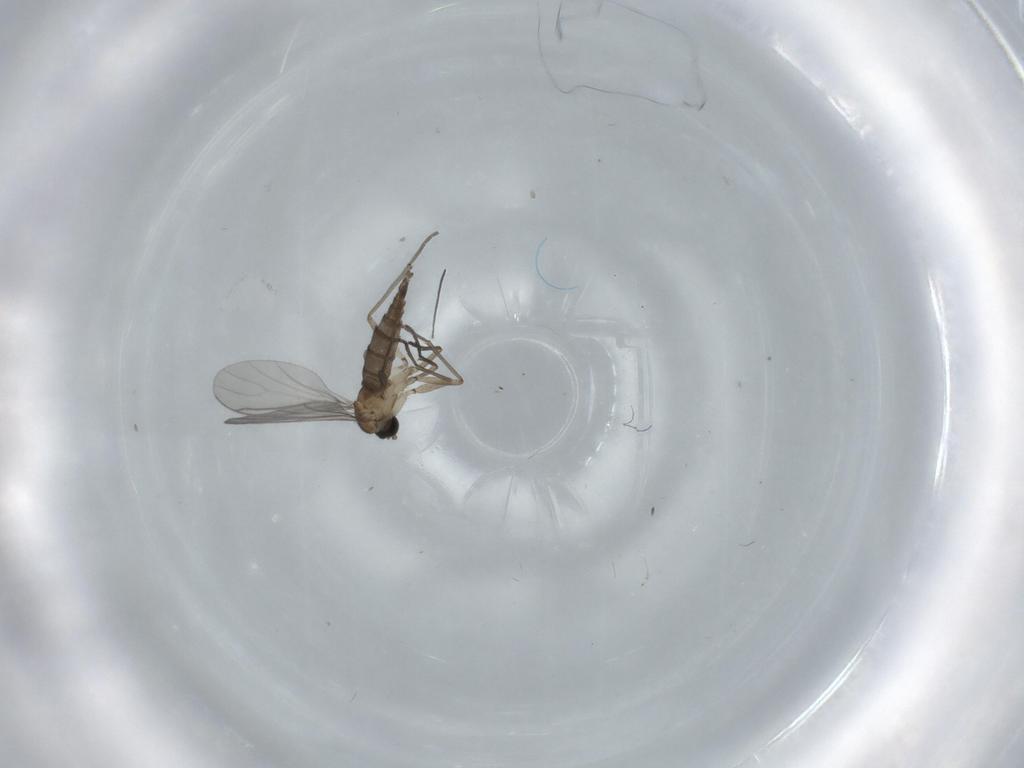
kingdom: Animalia
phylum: Arthropoda
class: Insecta
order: Diptera
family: Sciaridae
